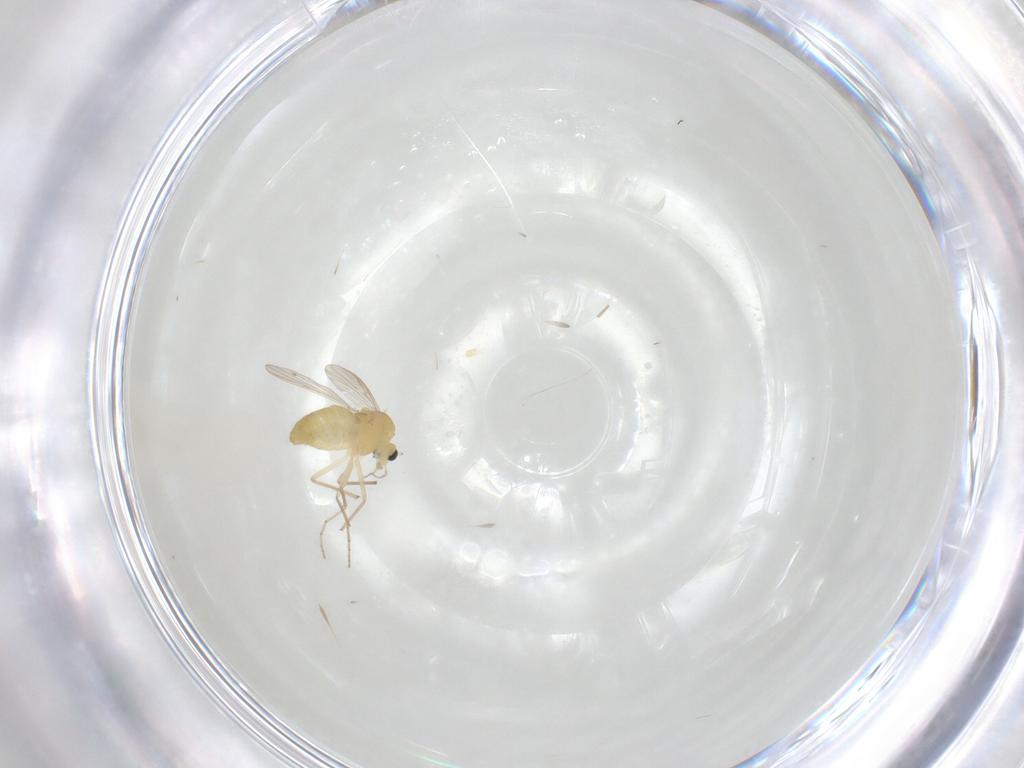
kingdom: Animalia
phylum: Arthropoda
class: Insecta
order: Diptera
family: Chironomidae
